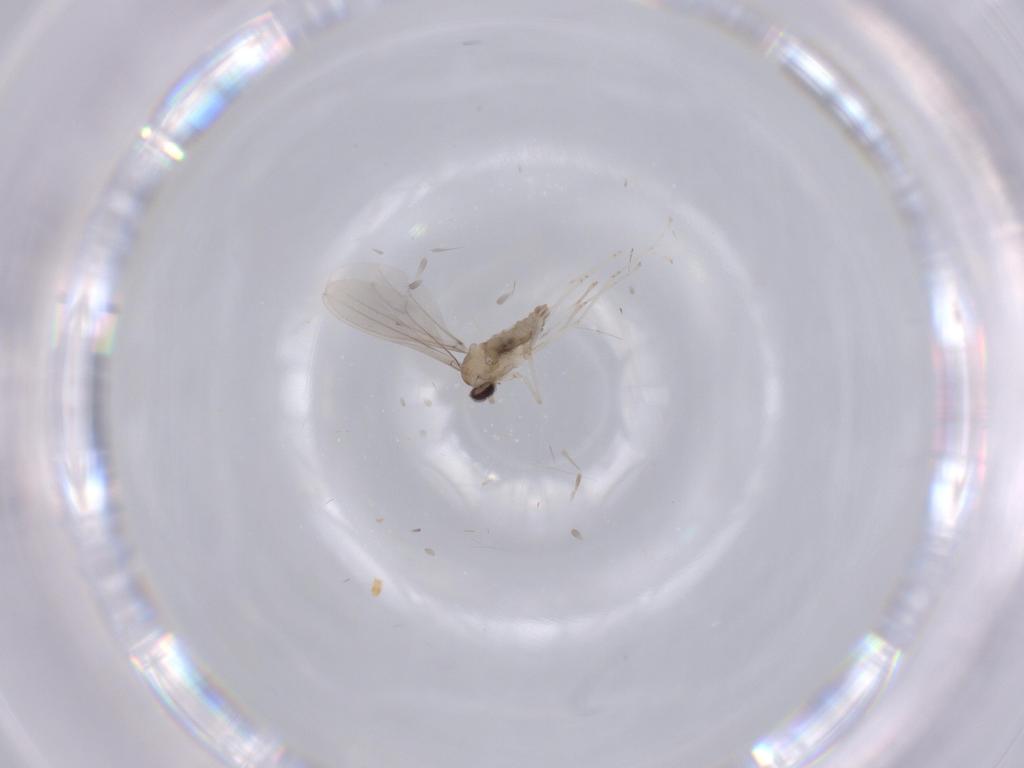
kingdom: Animalia
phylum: Arthropoda
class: Insecta
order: Diptera
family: Cecidomyiidae
